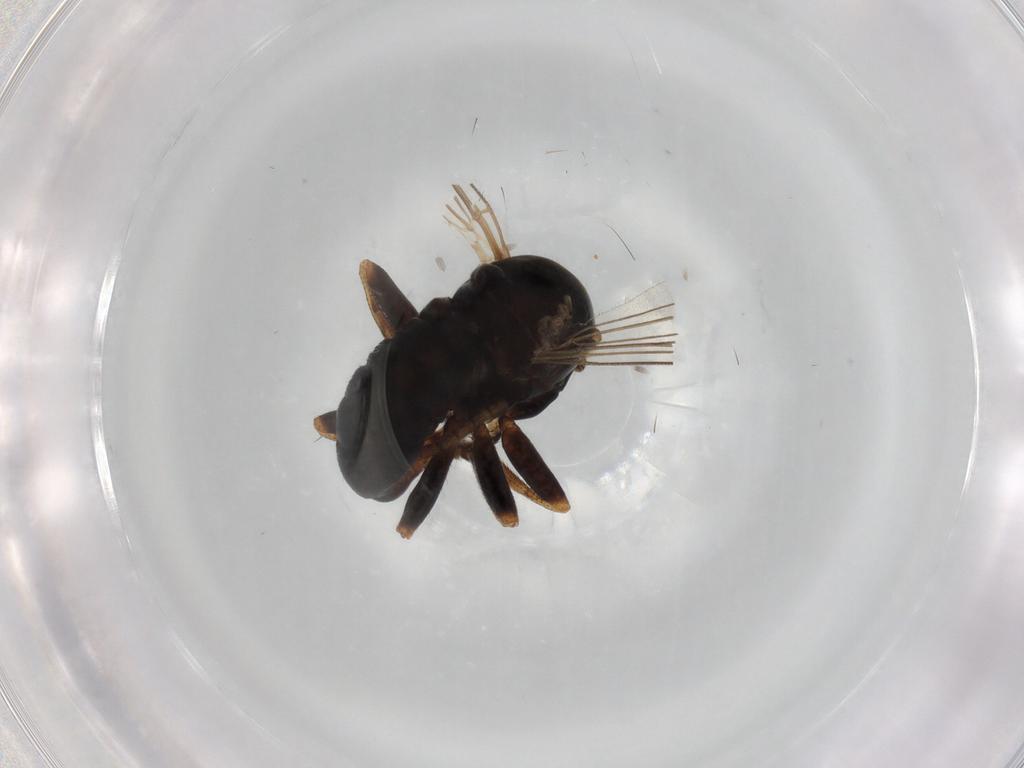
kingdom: Animalia
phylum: Arthropoda
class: Insecta
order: Diptera
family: Pipunculidae
